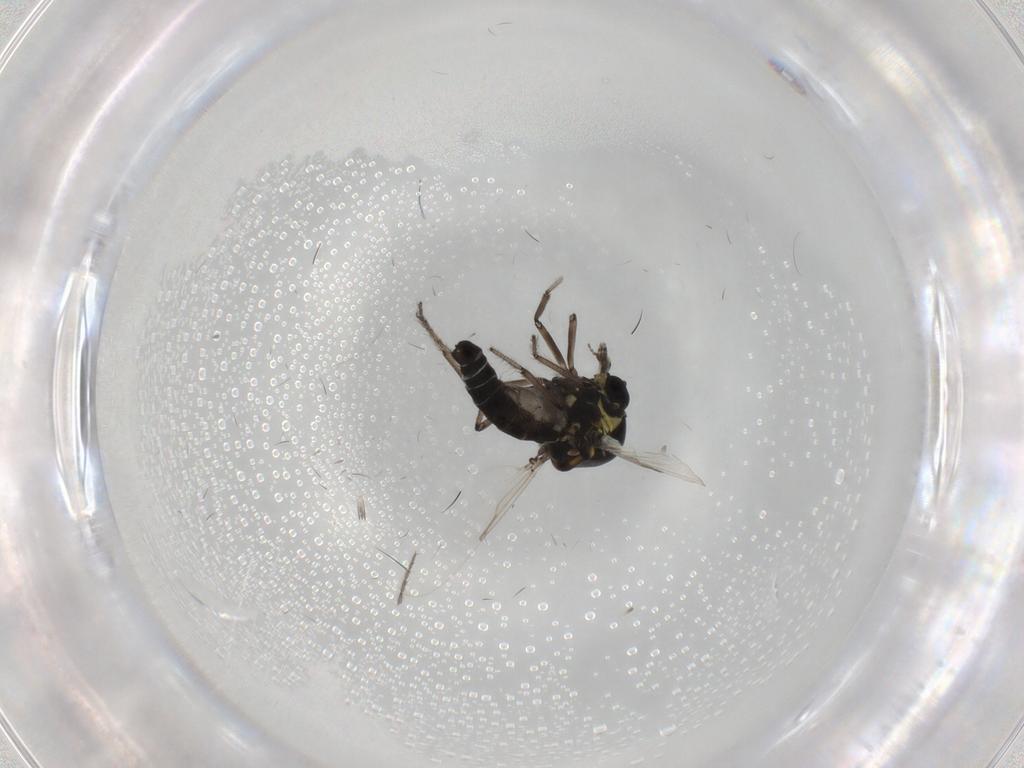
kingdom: Animalia
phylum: Arthropoda
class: Insecta
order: Diptera
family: Ceratopogonidae
